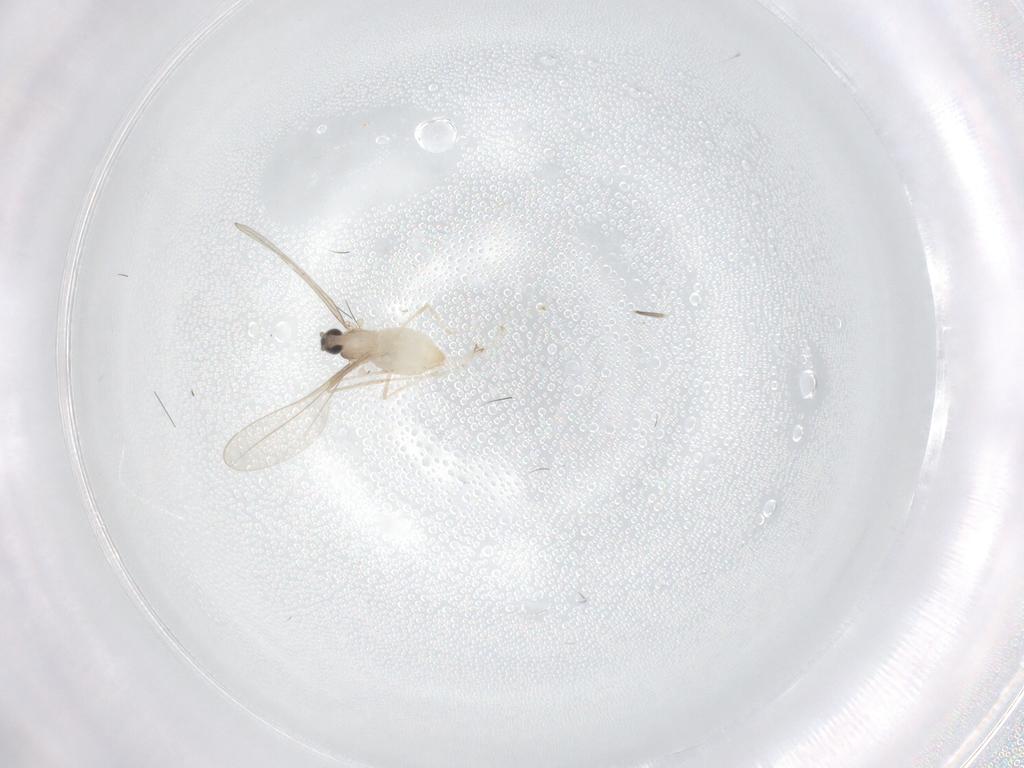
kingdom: Animalia
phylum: Arthropoda
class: Insecta
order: Diptera
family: Ceratopogonidae
